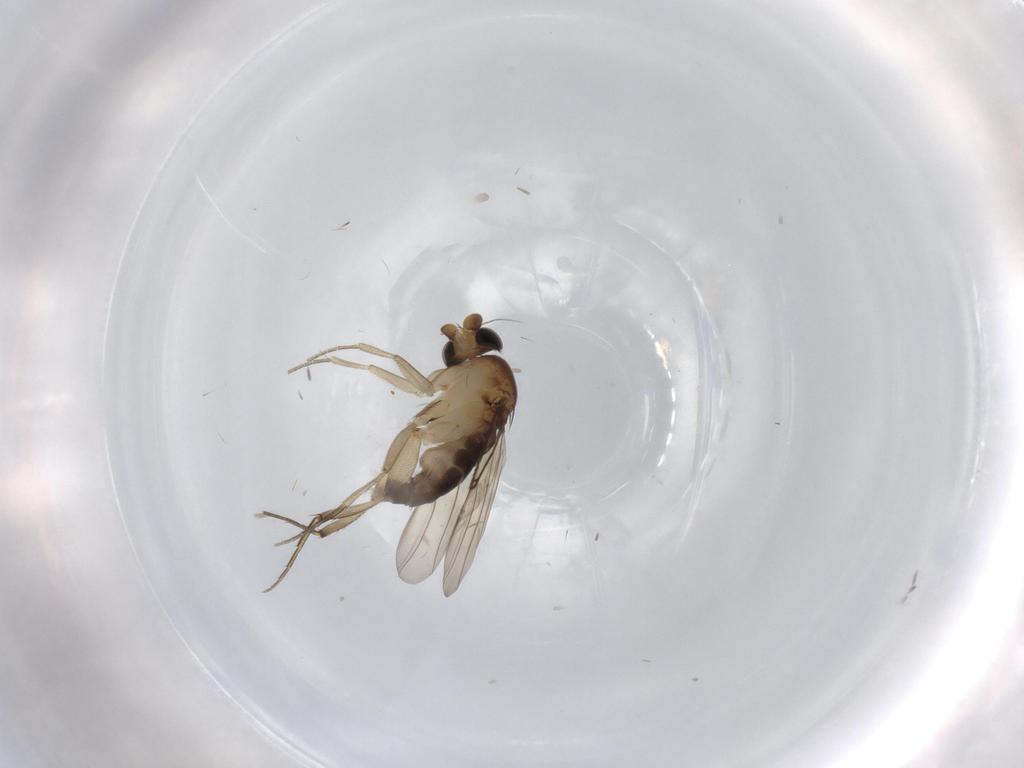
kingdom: Animalia
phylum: Arthropoda
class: Insecta
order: Diptera
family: Phoridae
